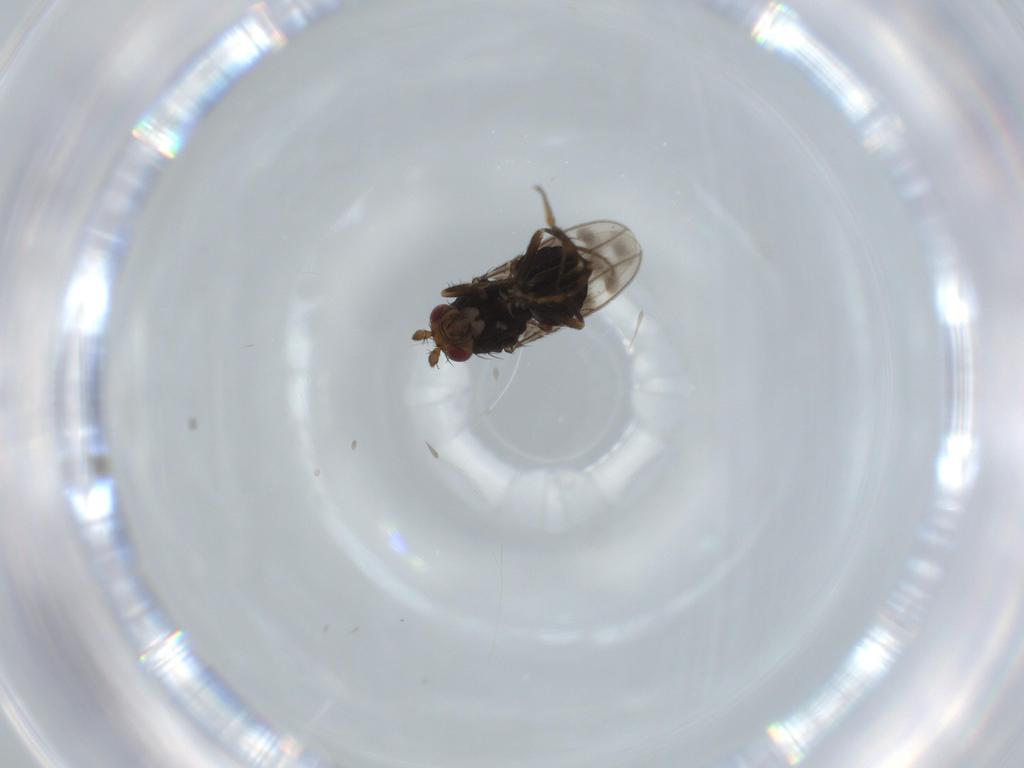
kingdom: Animalia
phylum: Arthropoda
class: Insecta
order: Diptera
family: Sphaeroceridae
